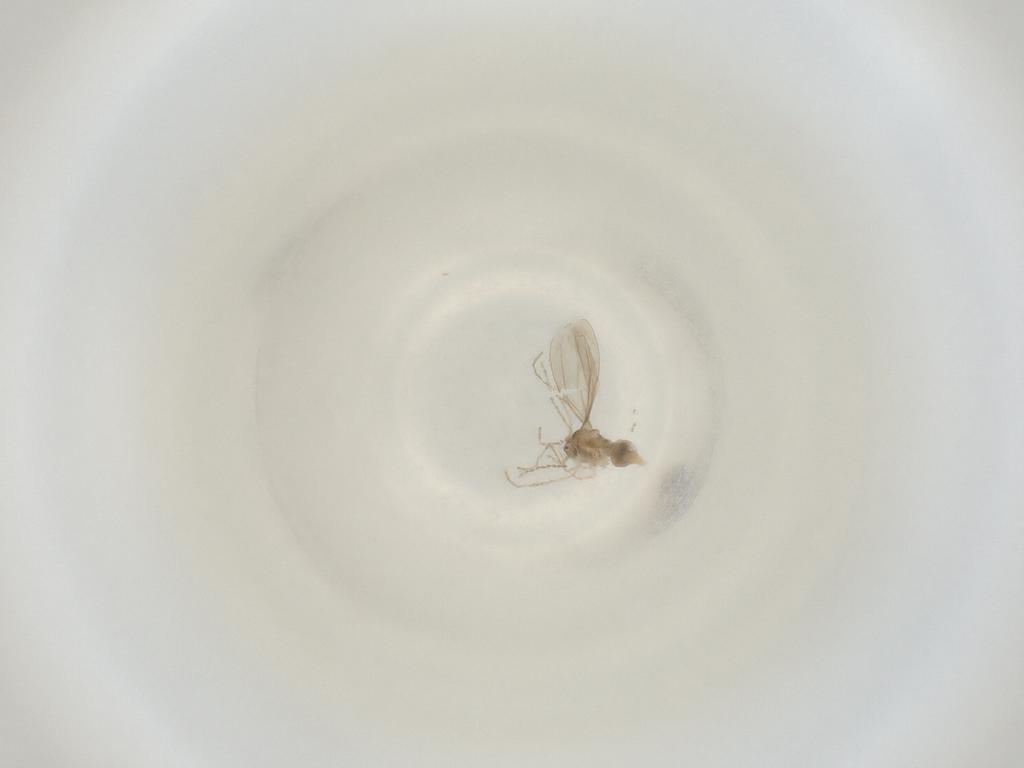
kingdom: Animalia
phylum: Arthropoda
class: Insecta
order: Diptera
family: Cecidomyiidae
